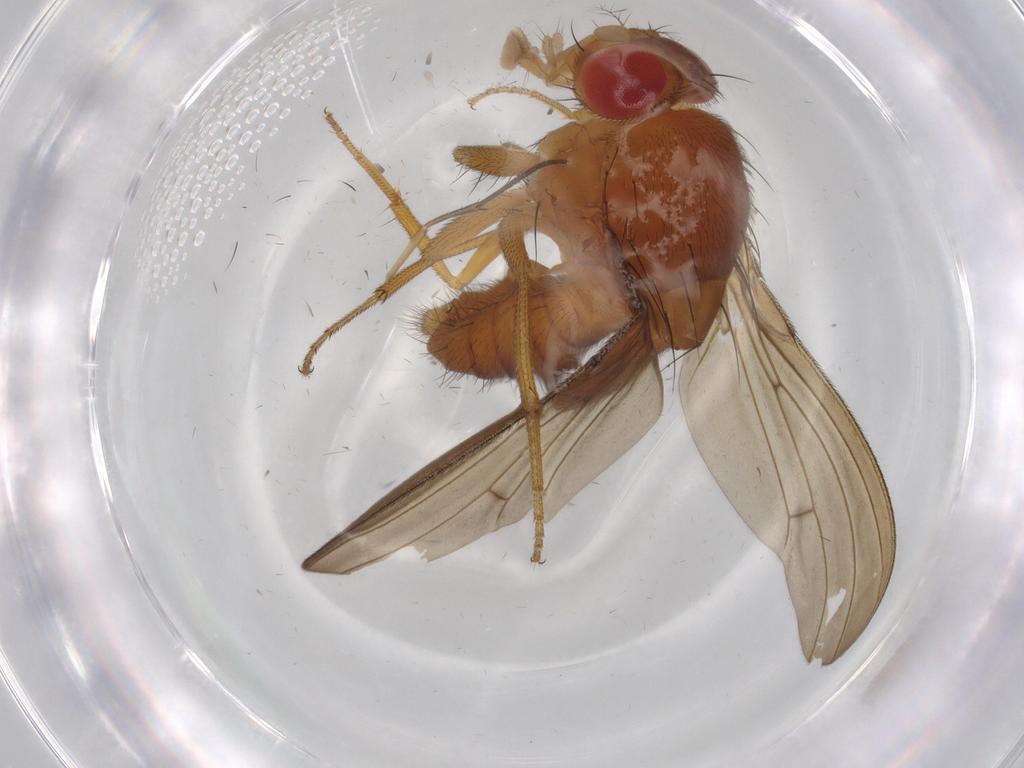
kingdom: Animalia
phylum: Arthropoda
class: Insecta
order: Diptera
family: Drosophilidae
